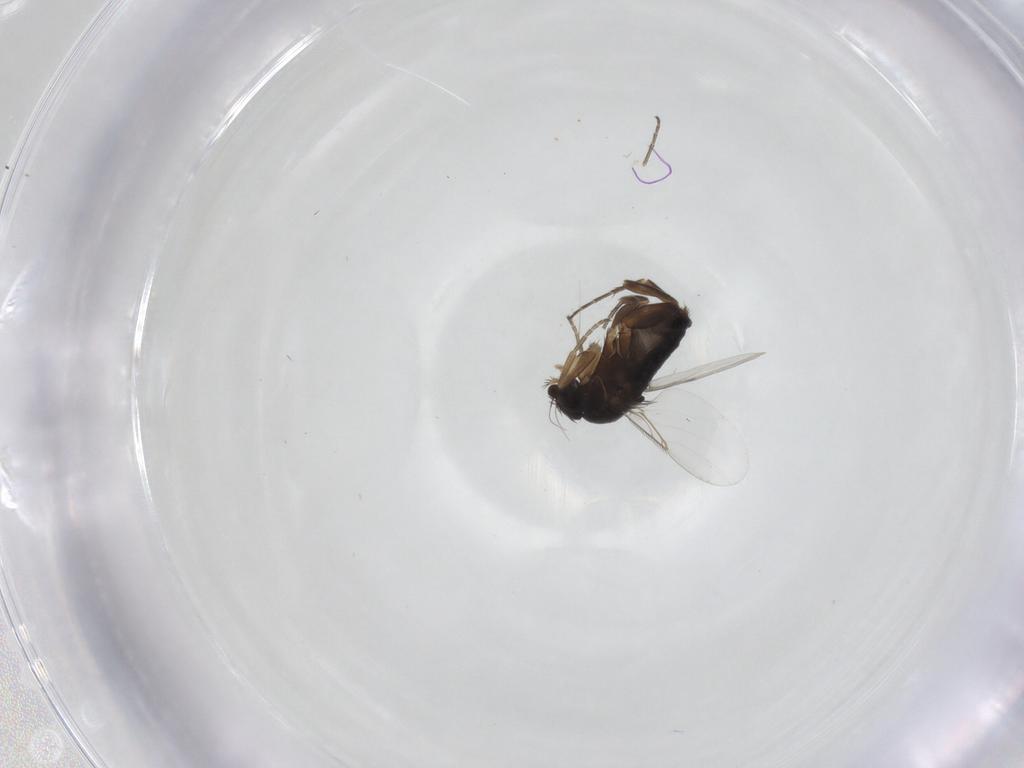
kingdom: Animalia
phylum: Arthropoda
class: Insecta
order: Diptera
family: Phoridae
